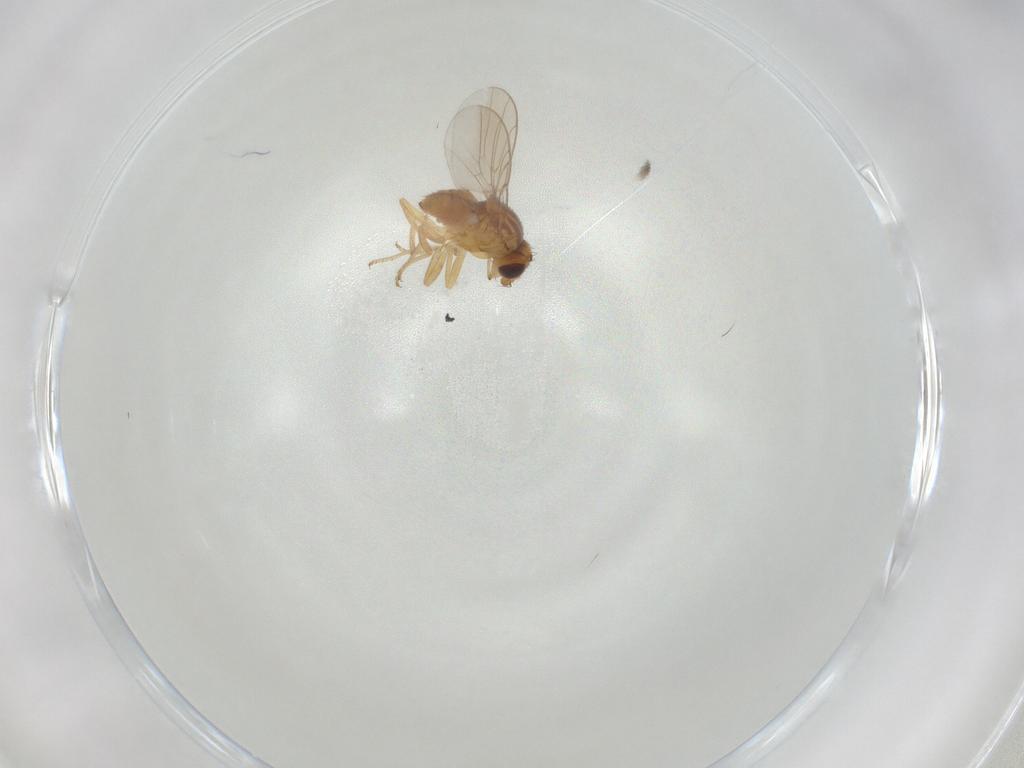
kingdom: Animalia
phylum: Arthropoda
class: Insecta
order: Diptera
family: Chloropidae
